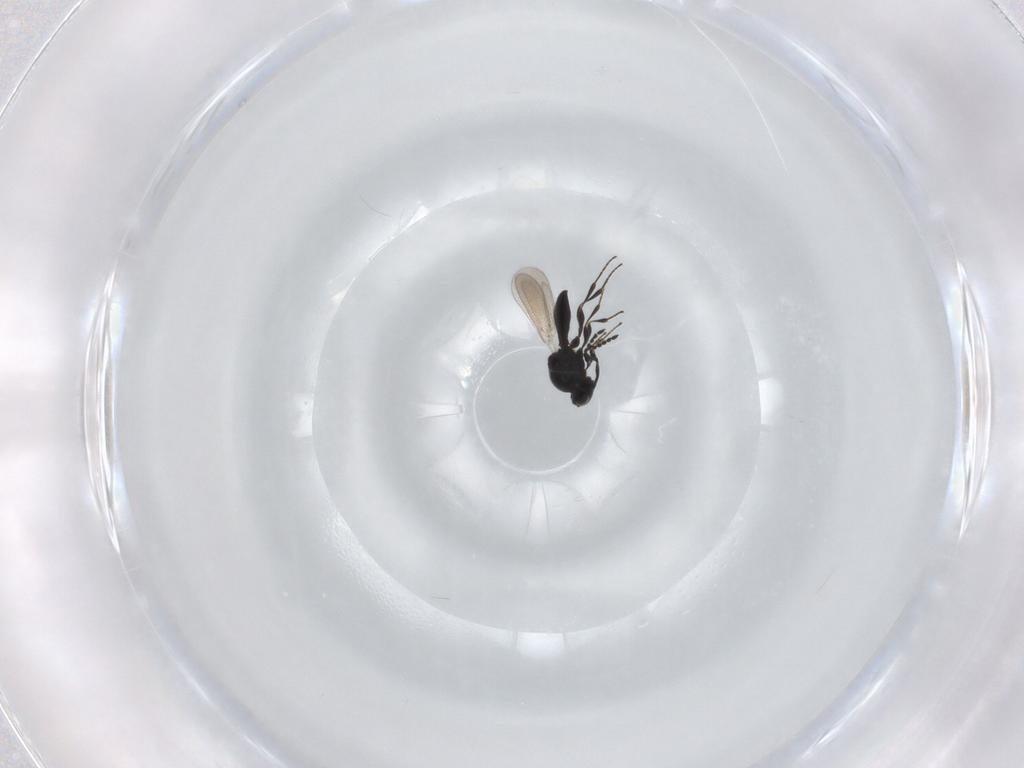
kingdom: Animalia
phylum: Arthropoda
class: Insecta
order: Hymenoptera
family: Platygastridae
